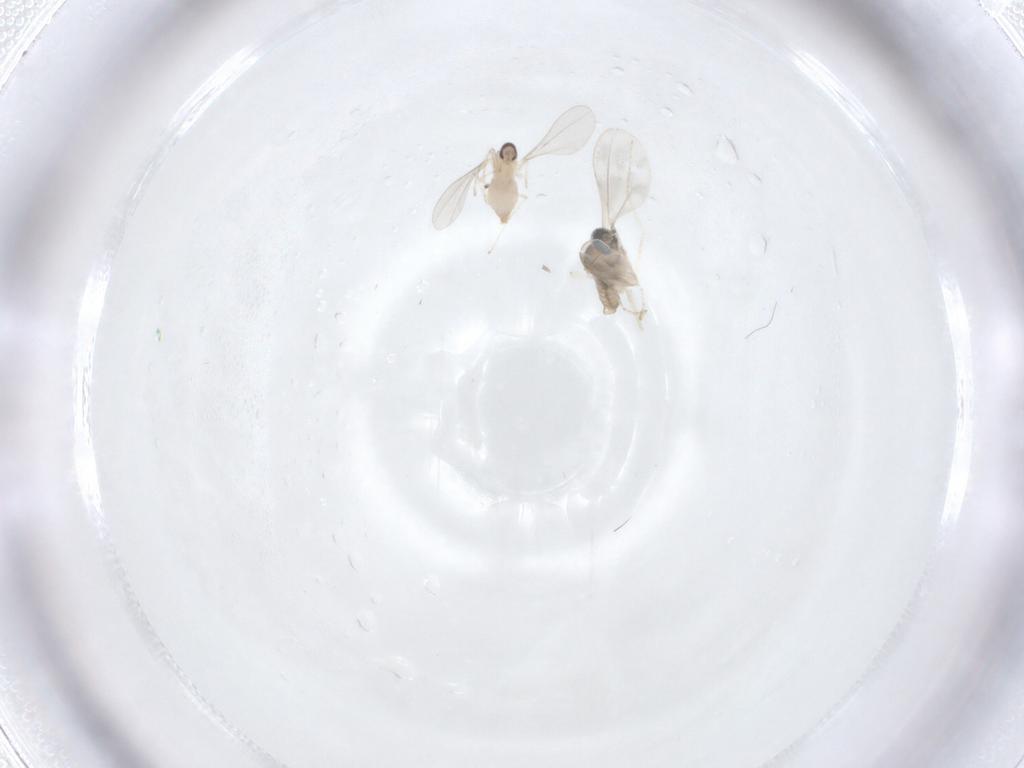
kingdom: Animalia
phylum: Arthropoda
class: Insecta
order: Diptera
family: Cecidomyiidae
